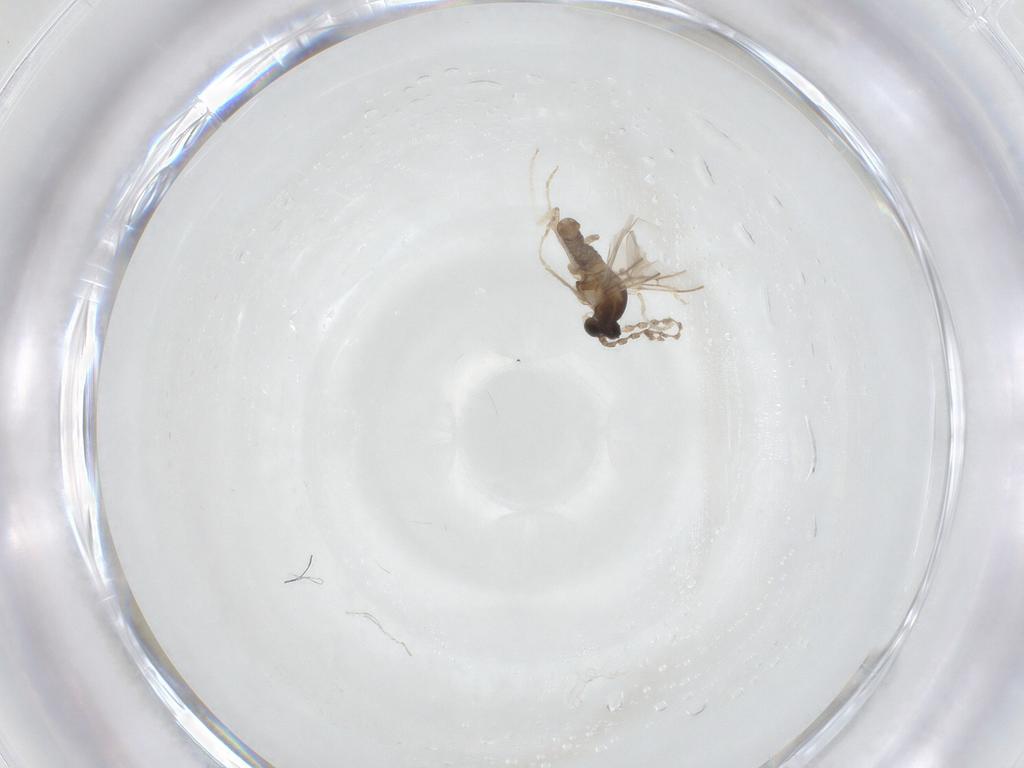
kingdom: Animalia
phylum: Arthropoda
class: Insecta
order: Diptera
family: Cecidomyiidae
